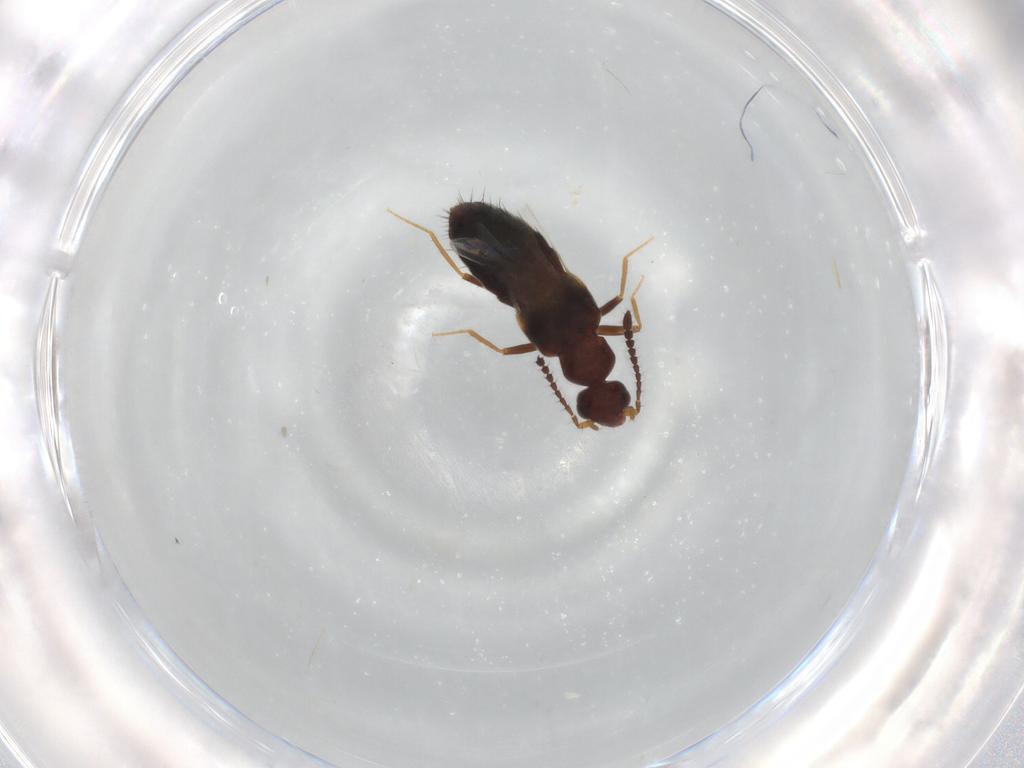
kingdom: Animalia
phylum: Arthropoda
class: Insecta
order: Coleoptera
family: Staphylinidae
